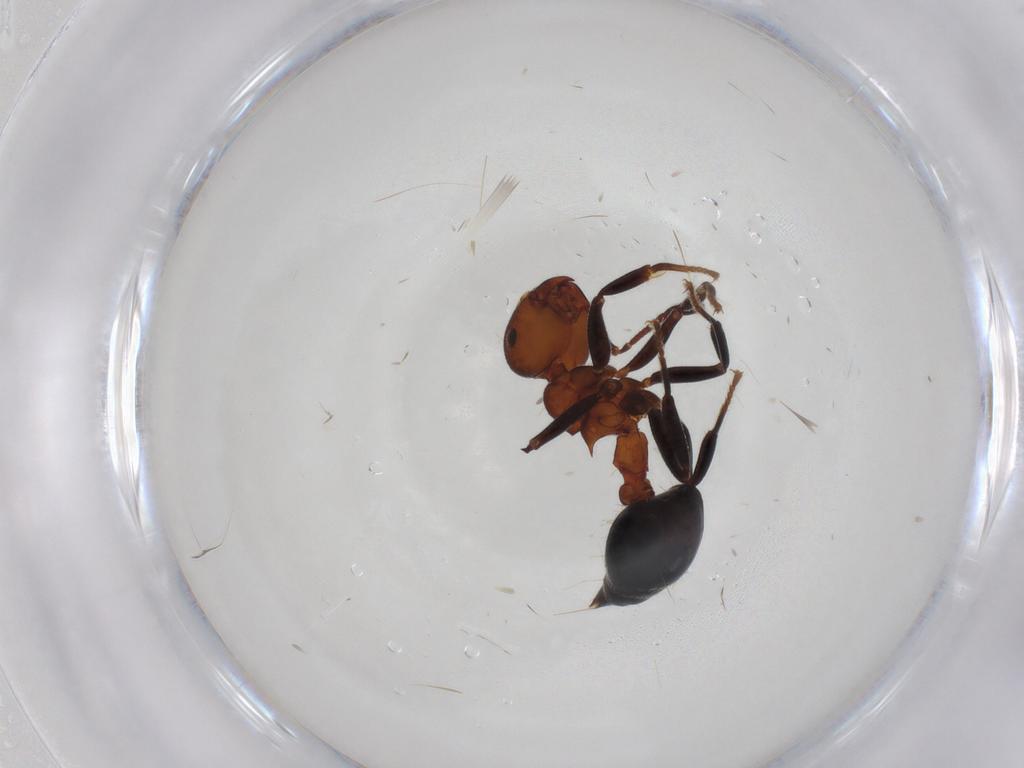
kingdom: Animalia
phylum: Arthropoda
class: Insecta
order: Hymenoptera
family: Formicidae
